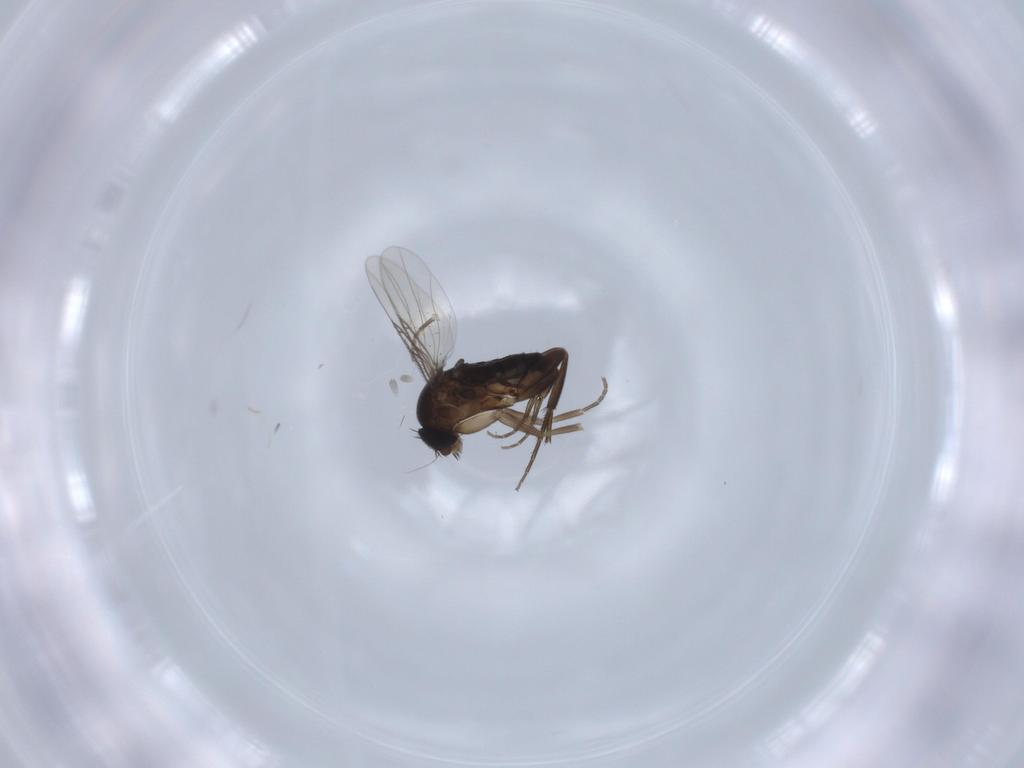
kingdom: Animalia
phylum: Arthropoda
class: Insecta
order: Diptera
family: Phoridae
